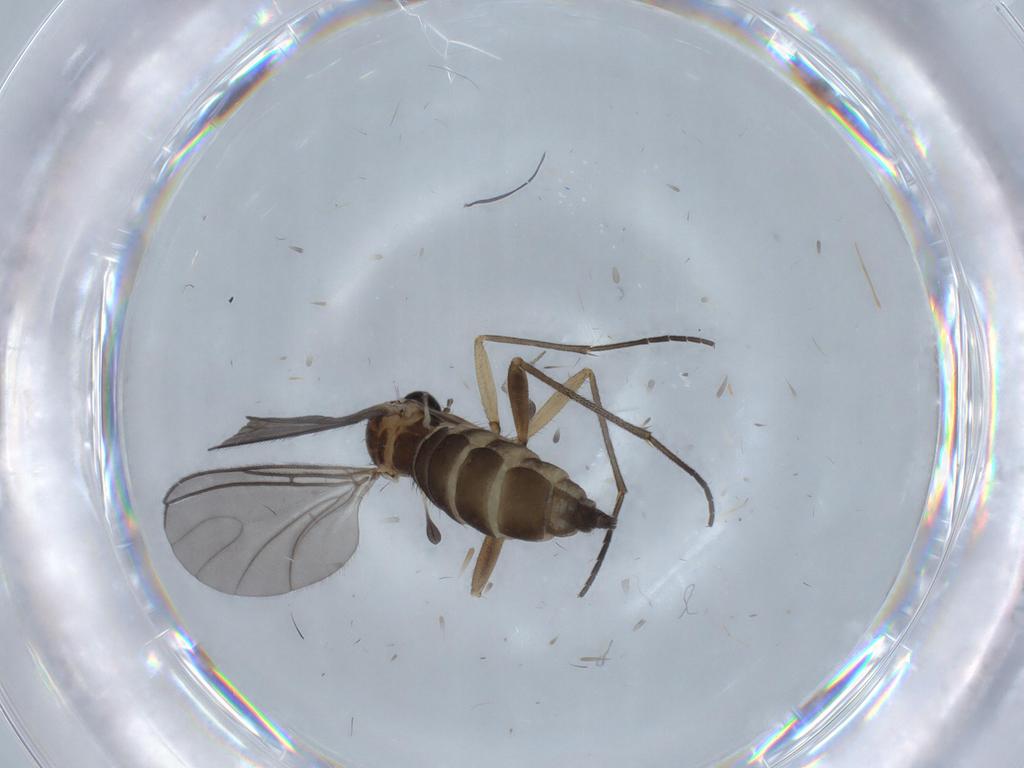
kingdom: Animalia
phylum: Arthropoda
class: Insecta
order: Diptera
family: Sciaridae
